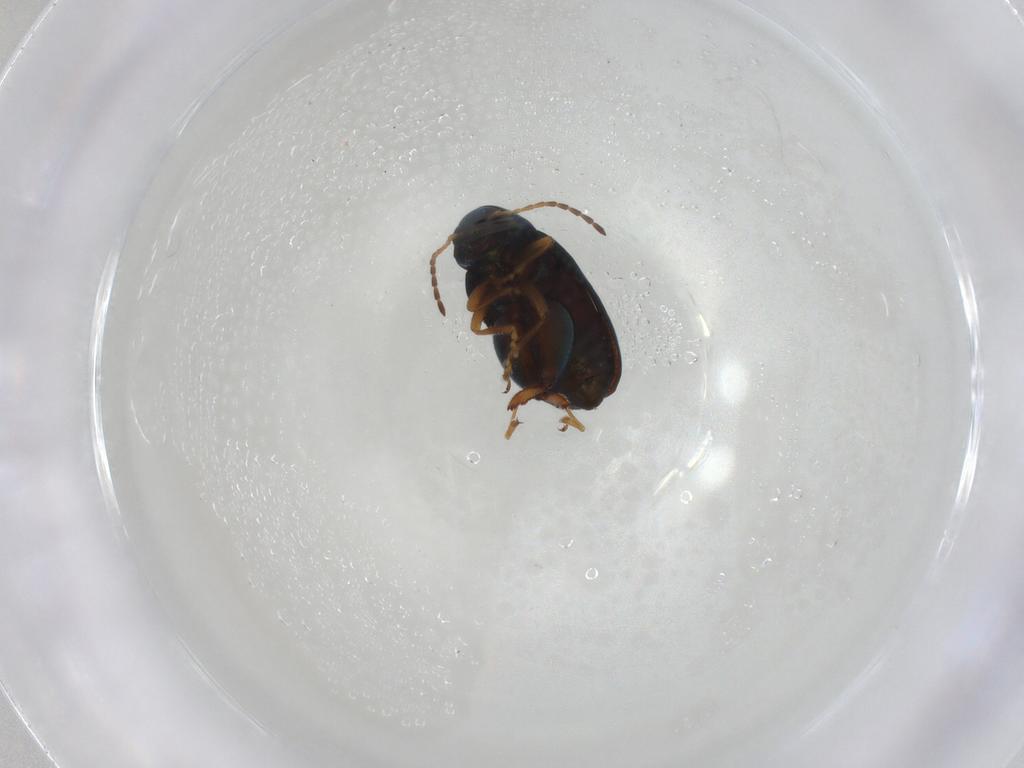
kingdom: Animalia
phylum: Arthropoda
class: Insecta
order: Coleoptera
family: Chrysomelidae
